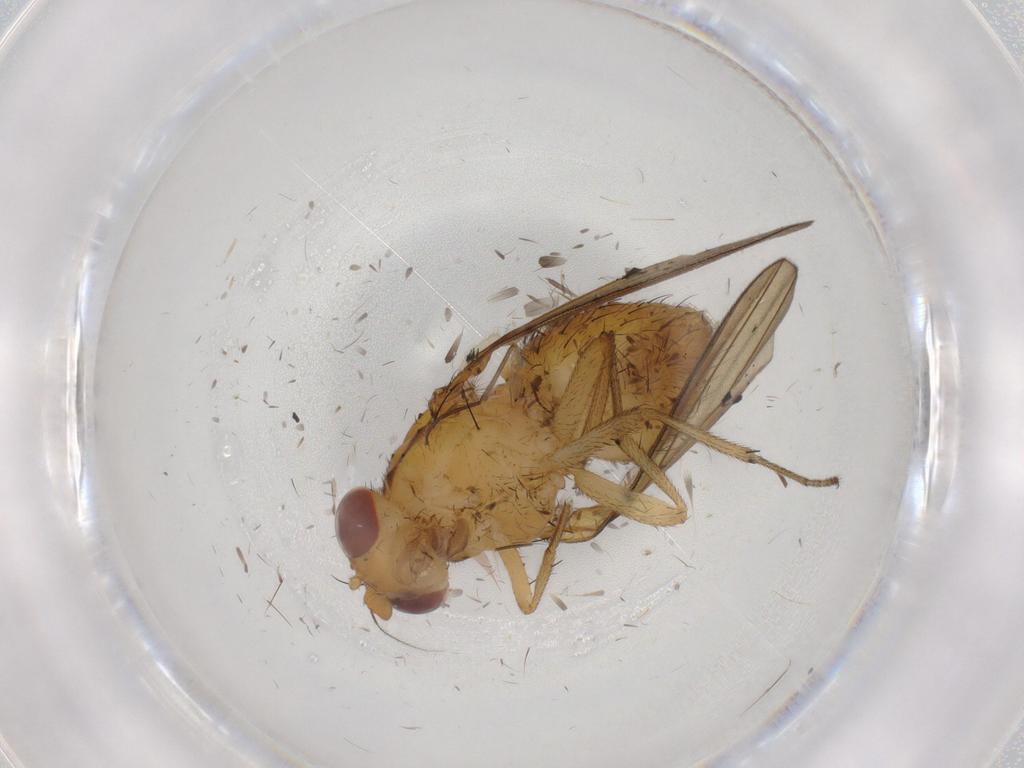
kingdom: Animalia
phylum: Arthropoda
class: Insecta
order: Diptera
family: Lauxaniidae
